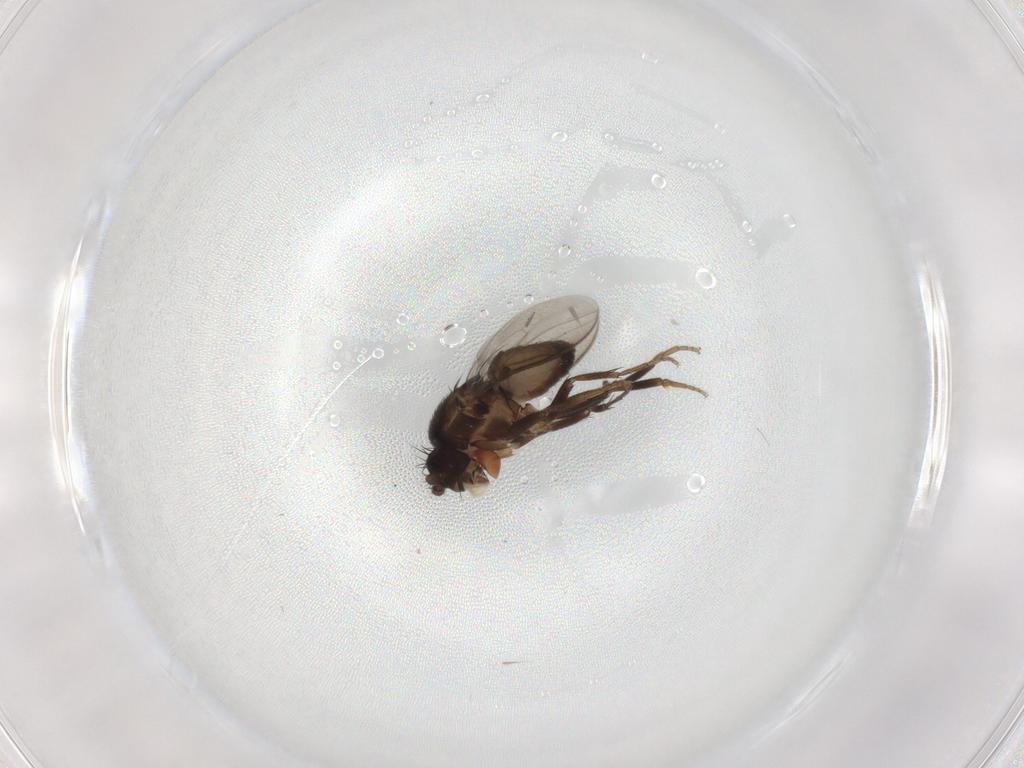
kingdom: Animalia
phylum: Arthropoda
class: Insecta
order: Diptera
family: Sphaeroceridae
